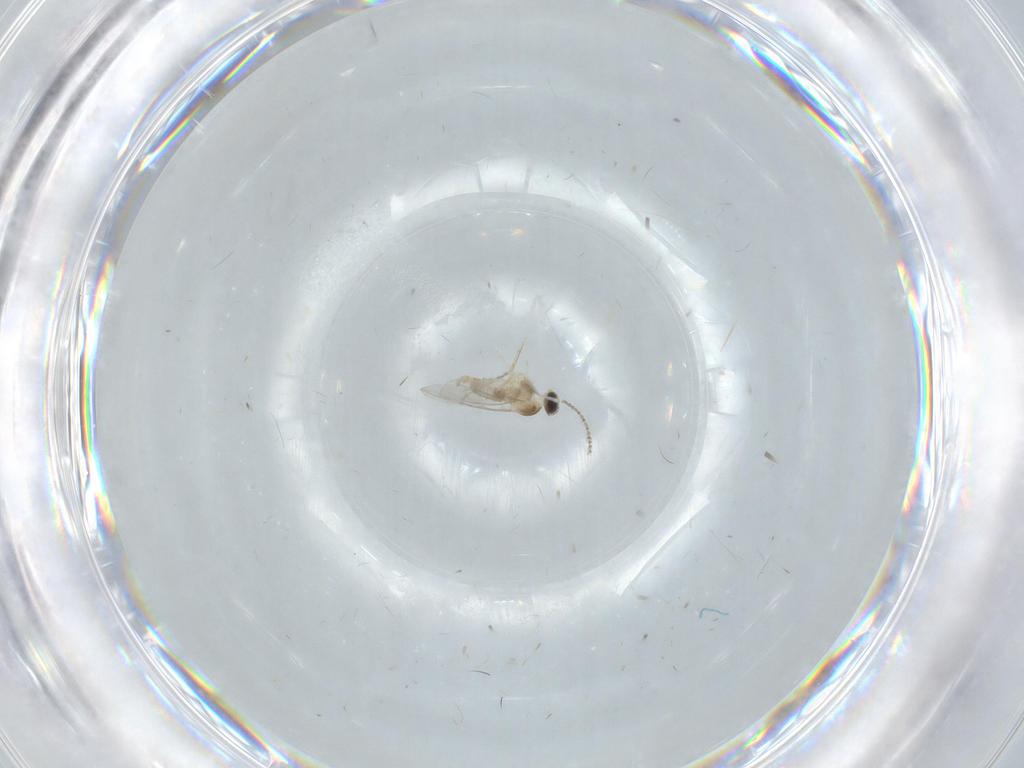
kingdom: Animalia
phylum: Arthropoda
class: Insecta
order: Diptera
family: Cecidomyiidae
